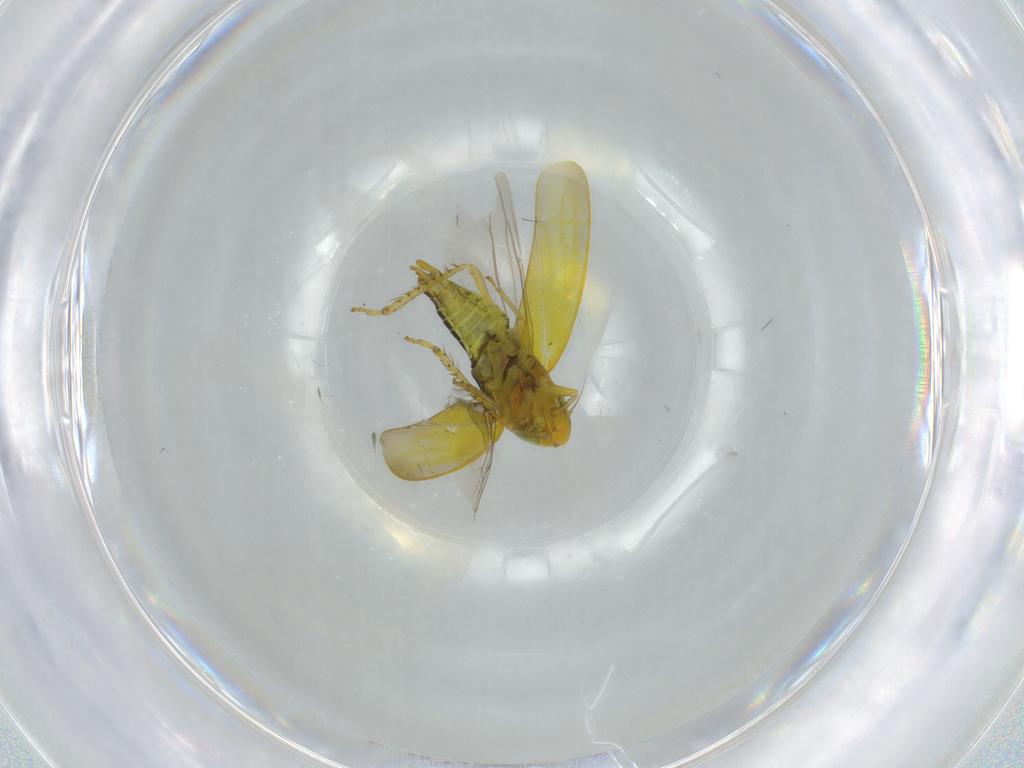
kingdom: Animalia
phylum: Arthropoda
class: Insecta
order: Hemiptera
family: Cicadellidae
